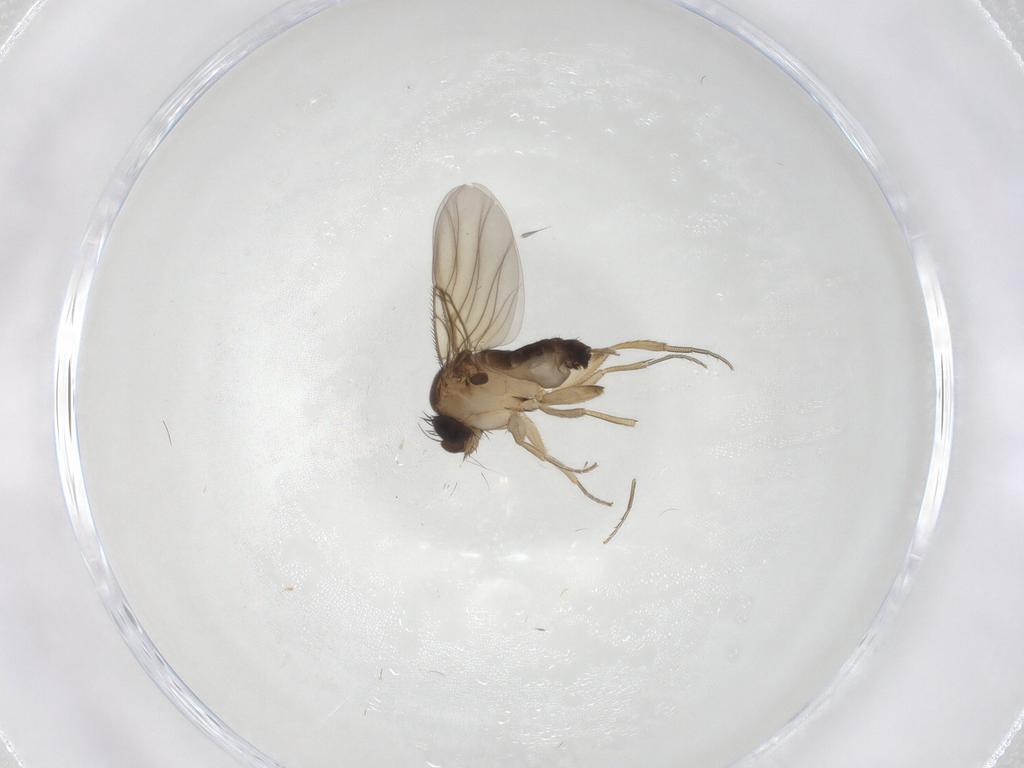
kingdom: Animalia
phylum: Arthropoda
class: Insecta
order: Diptera
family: Phoridae
